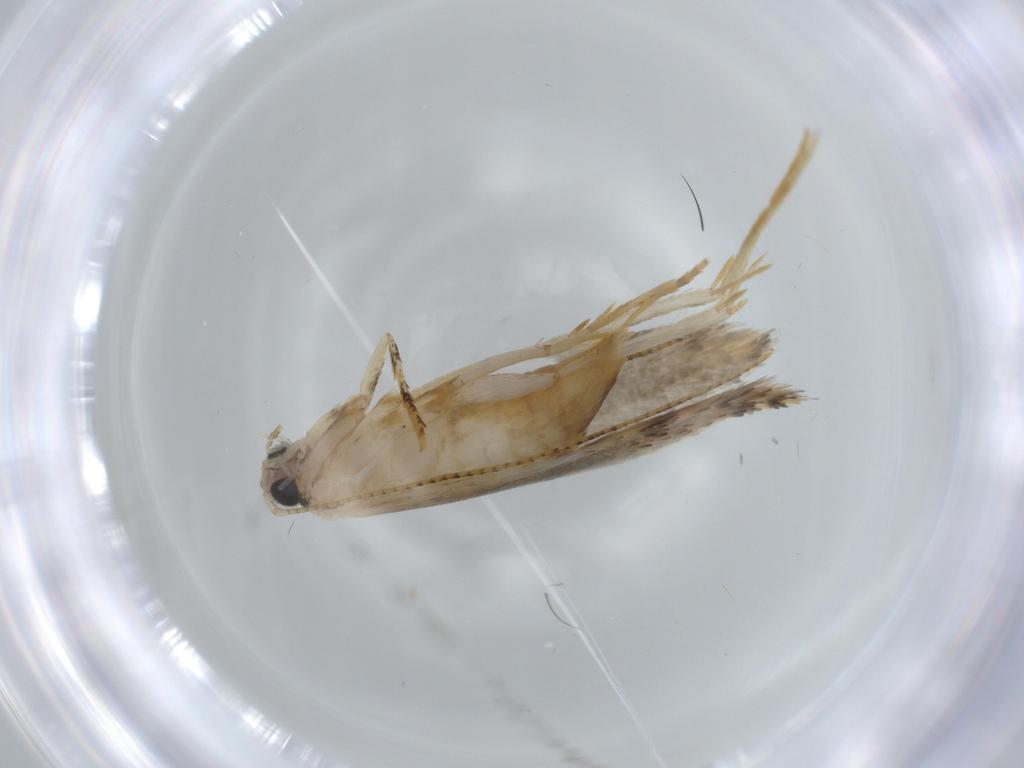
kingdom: Animalia
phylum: Arthropoda
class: Insecta
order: Lepidoptera
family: Tineidae
